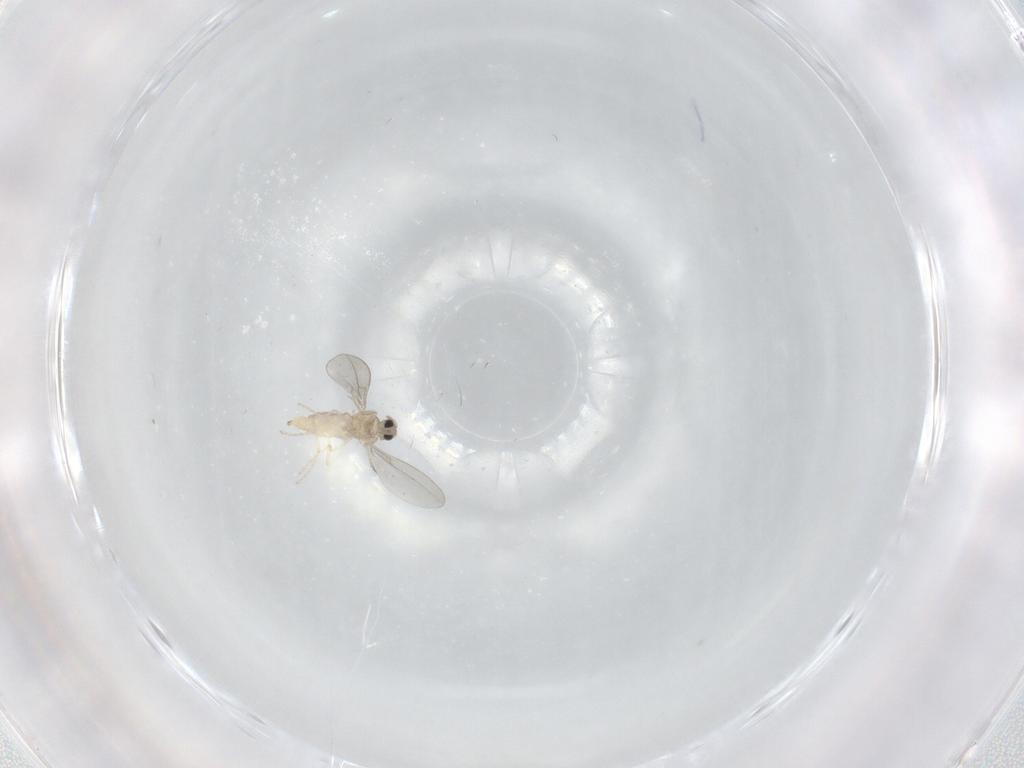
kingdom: Animalia
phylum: Arthropoda
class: Insecta
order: Diptera
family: Cecidomyiidae
